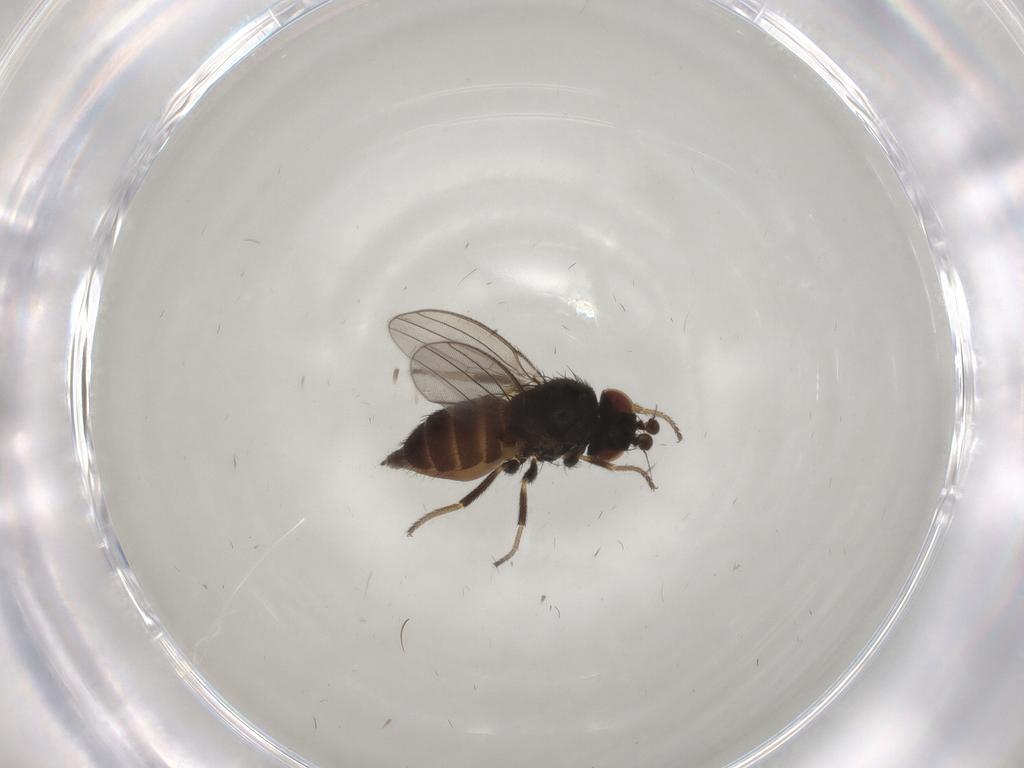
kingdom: Animalia
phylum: Arthropoda
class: Insecta
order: Diptera
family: Milichiidae
